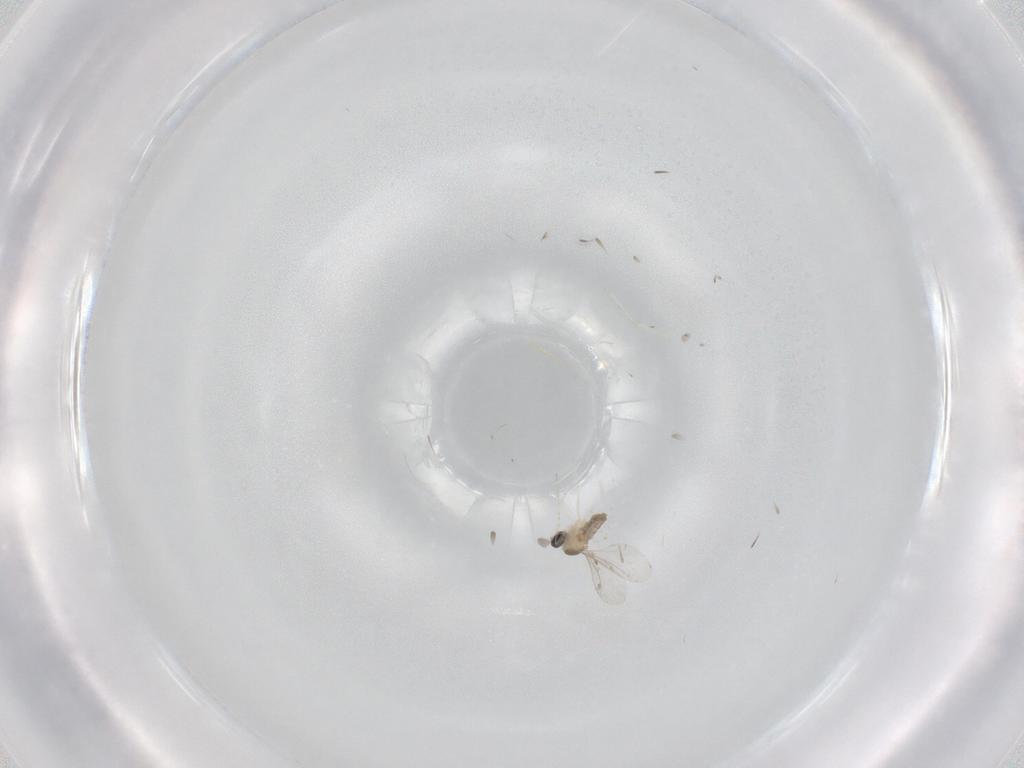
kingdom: Animalia
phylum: Arthropoda
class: Insecta
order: Diptera
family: Cecidomyiidae
